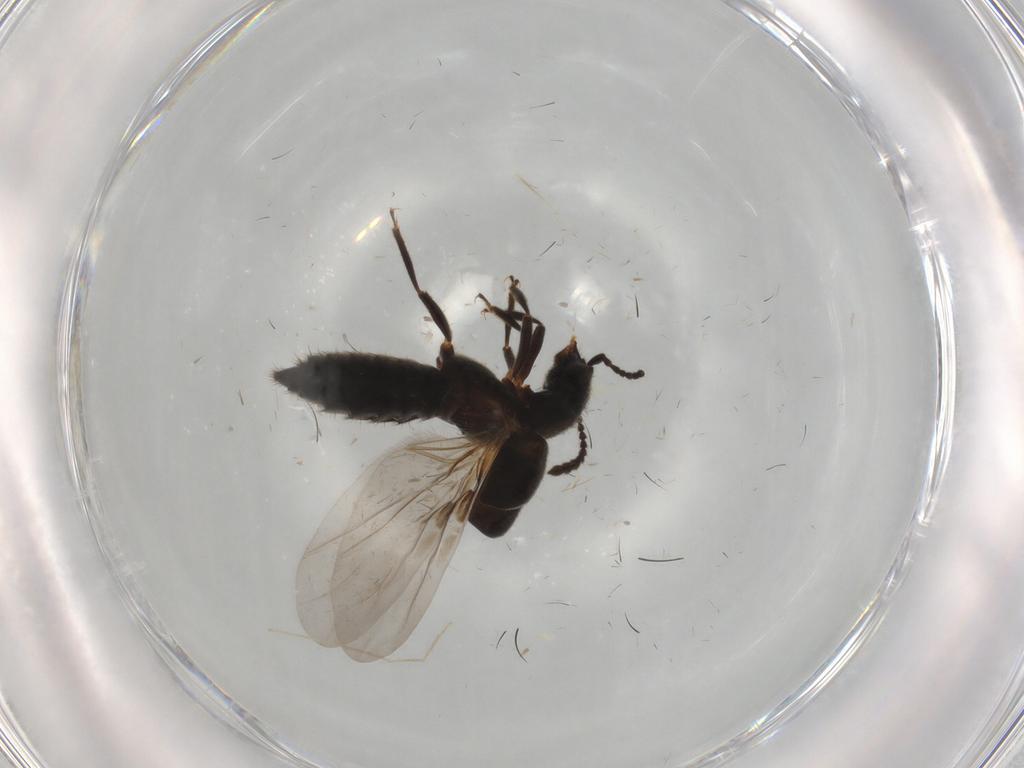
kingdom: Animalia
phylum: Arthropoda
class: Insecta
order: Coleoptera
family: Staphylinidae
